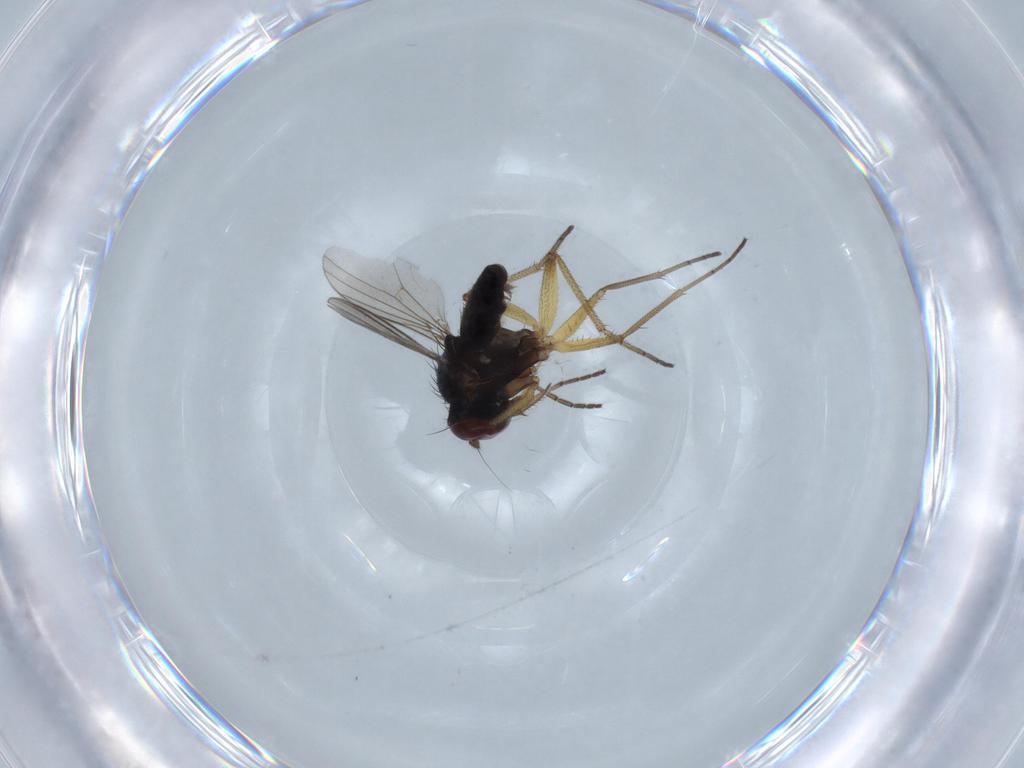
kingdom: Animalia
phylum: Arthropoda
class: Insecta
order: Diptera
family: Dolichopodidae
